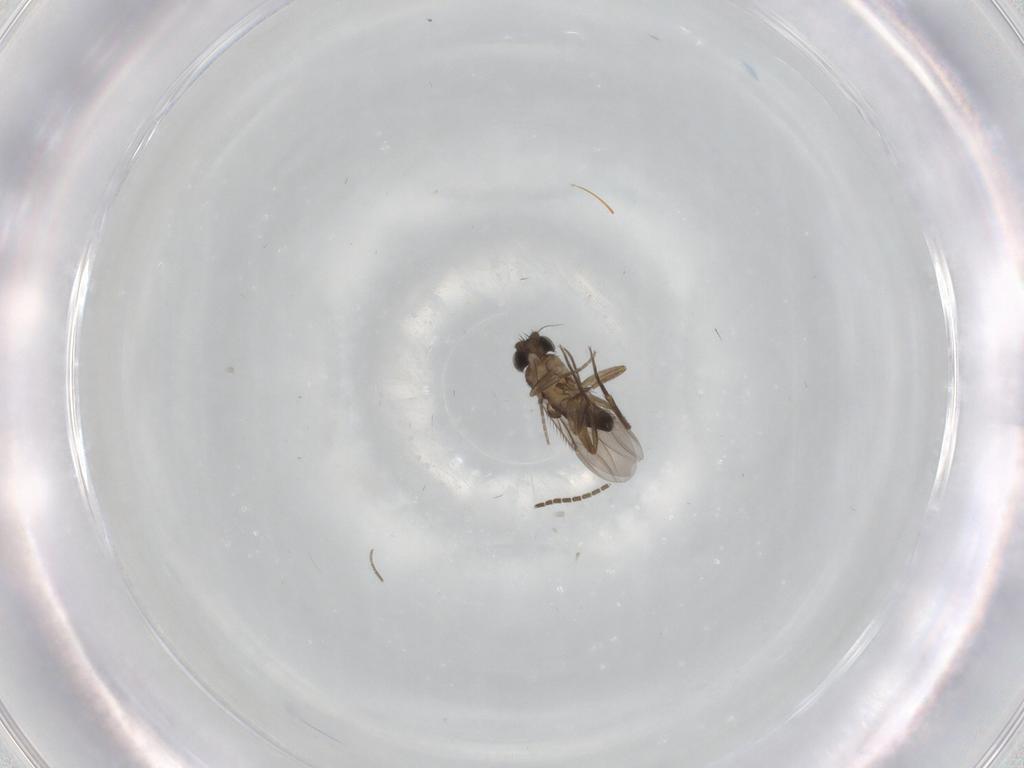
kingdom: Animalia
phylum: Arthropoda
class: Insecta
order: Diptera
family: Phoridae
